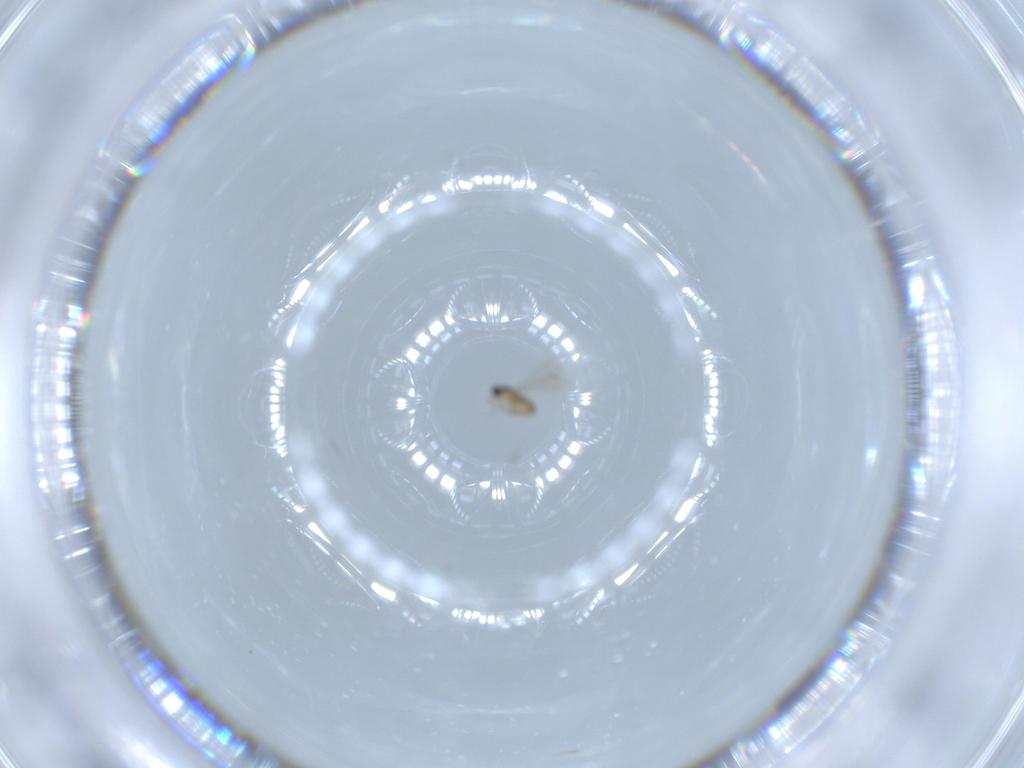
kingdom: Animalia
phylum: Arthropoda
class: Insecta
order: Hymenoptera
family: Mymaridae
